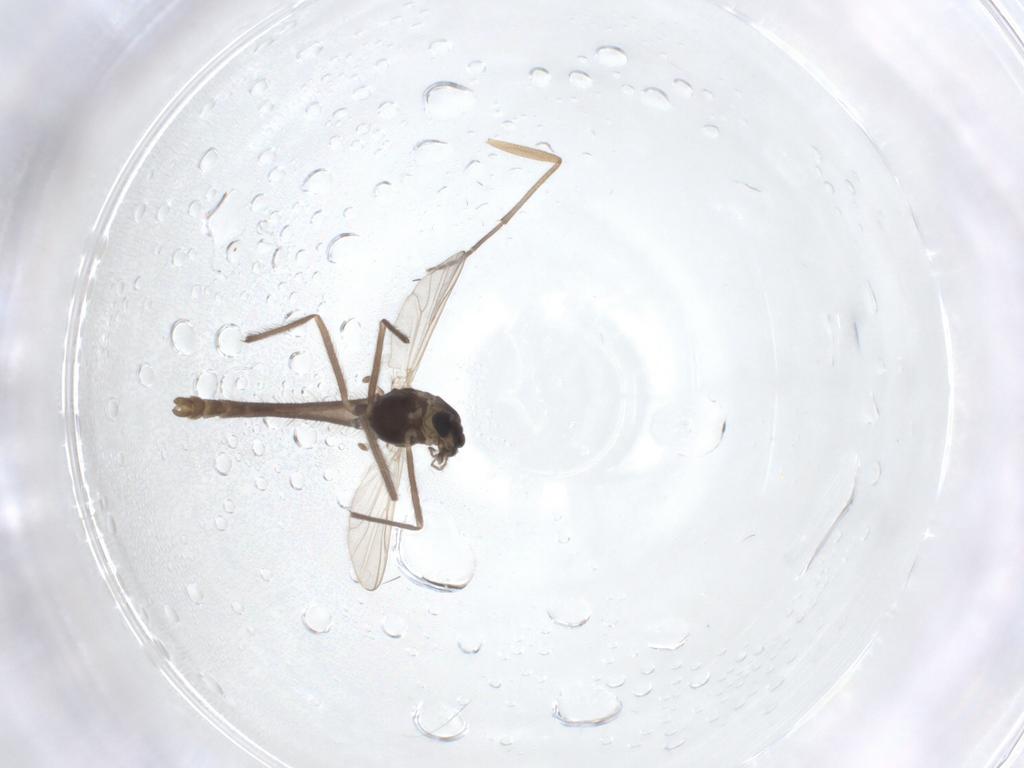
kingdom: Animalia
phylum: Arthropoda
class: Insecta
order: Diptera
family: Chironomidae
